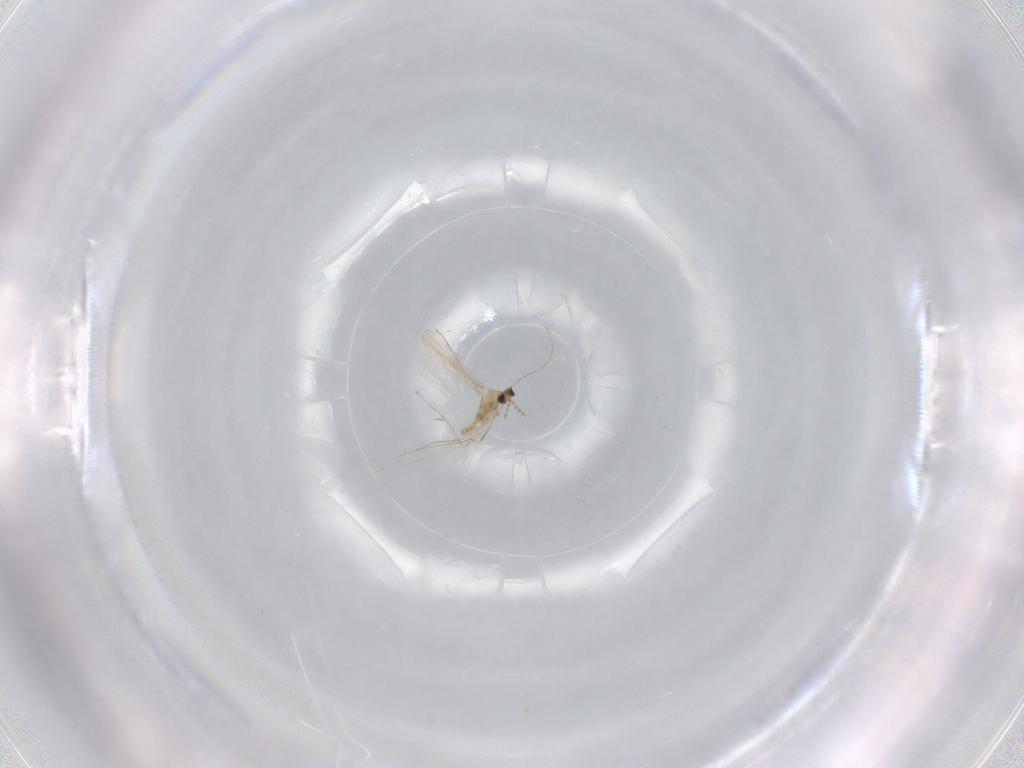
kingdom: Animalia
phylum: Arthropoda
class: Insecta
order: Diptera
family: Cecidomyiidae
